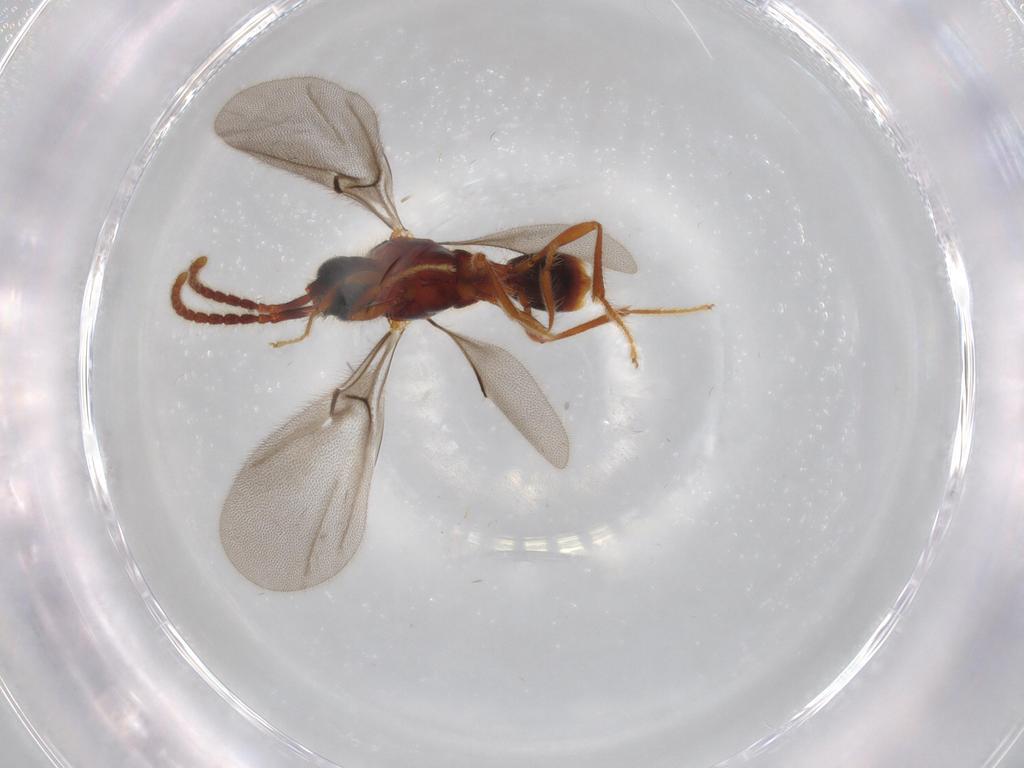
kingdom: Animalia
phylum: Arthropoda
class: Insecta
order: Hymenoptera
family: Diapriidae
